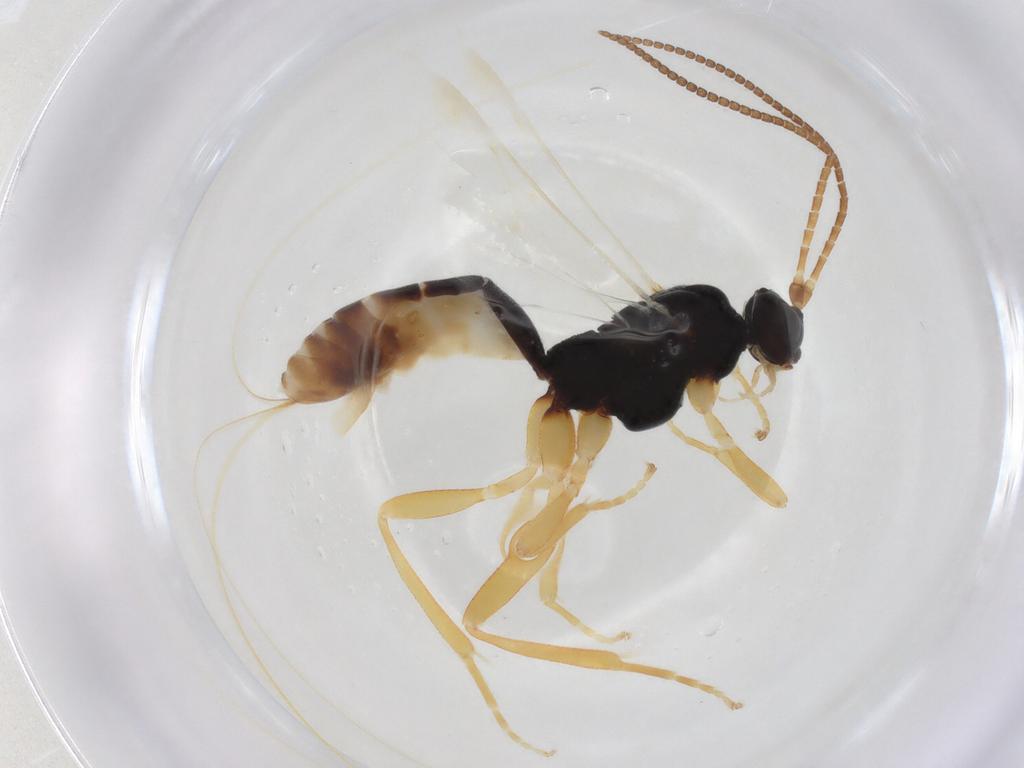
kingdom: Animalia
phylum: Arthropoda
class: Insecta
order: Hymenoptera
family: Braconidae
